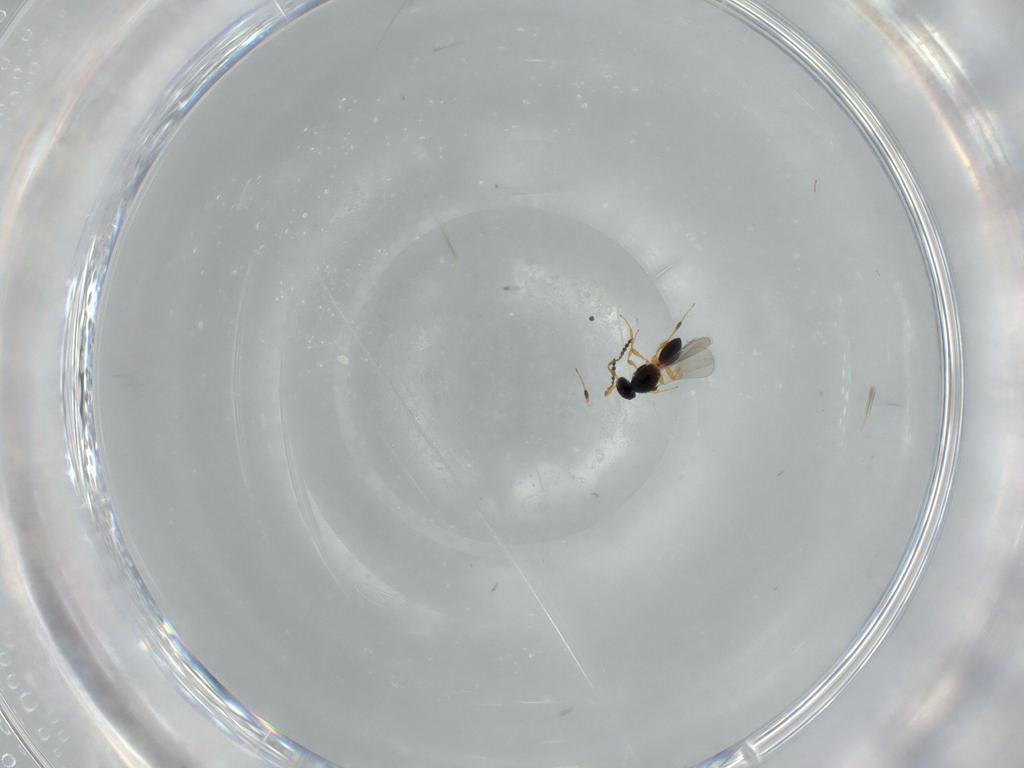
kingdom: Animalia
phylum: Arthropoda
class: Insecta
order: Hymenoptera
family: Platygastridae
